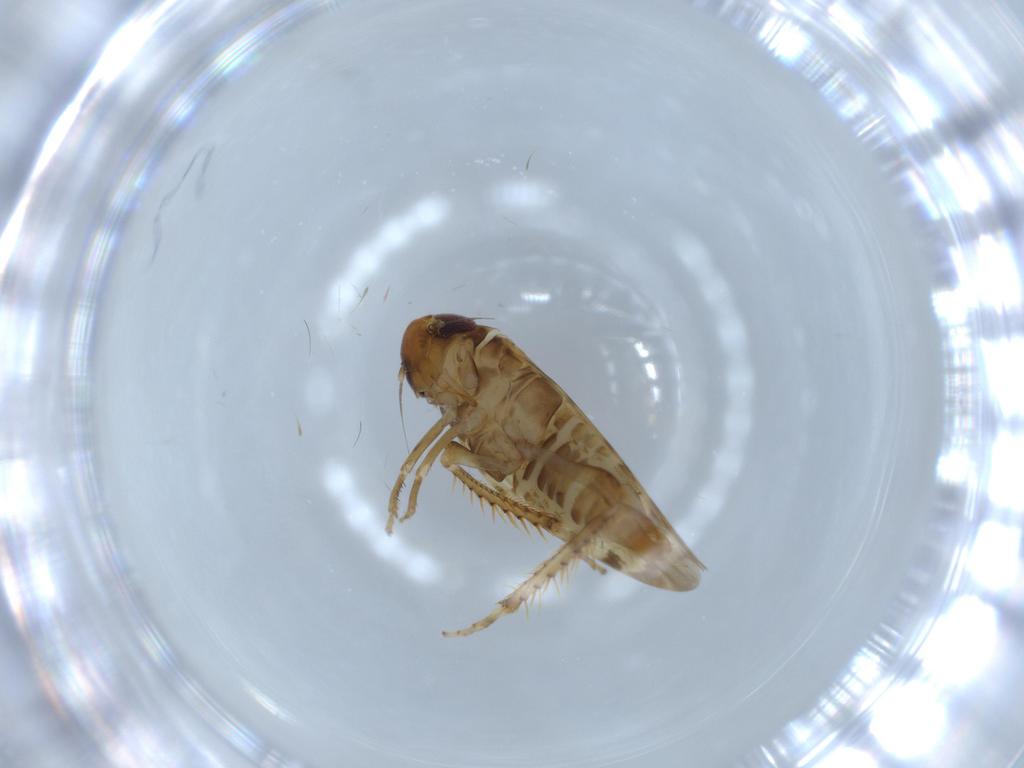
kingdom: Animalia
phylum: Arthropoda
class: Insecta
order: Hemiptera
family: Cicadellidae
